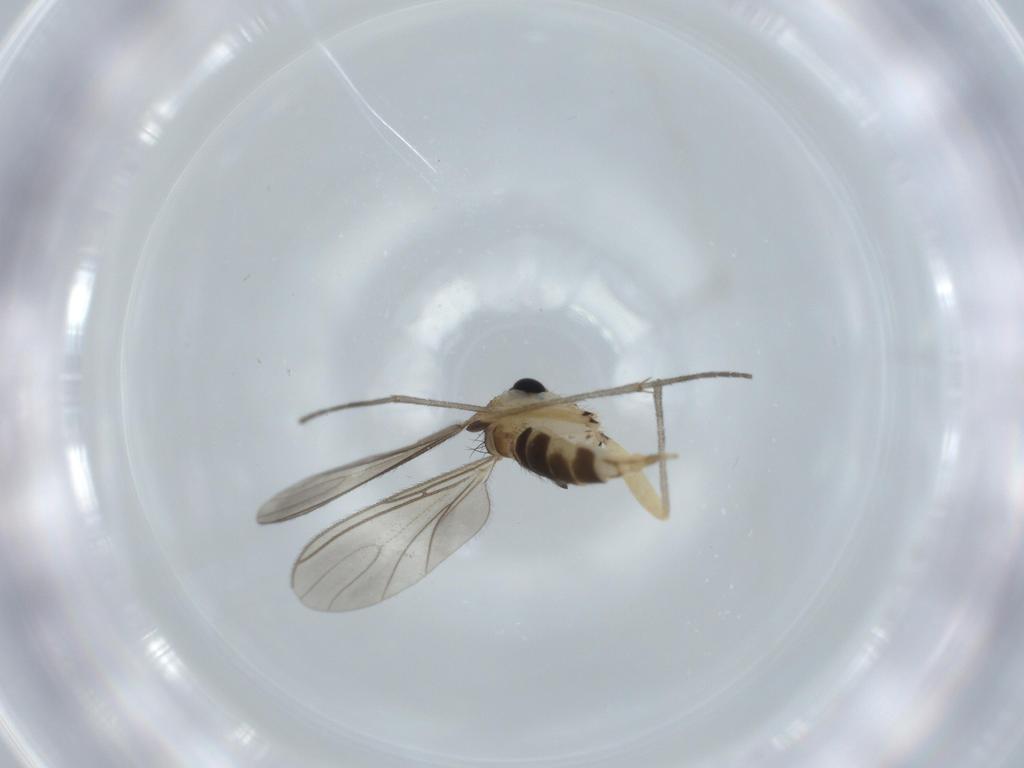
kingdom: Animalia
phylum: Arthropoda
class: Insecta
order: Diptera
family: Sciaridae
